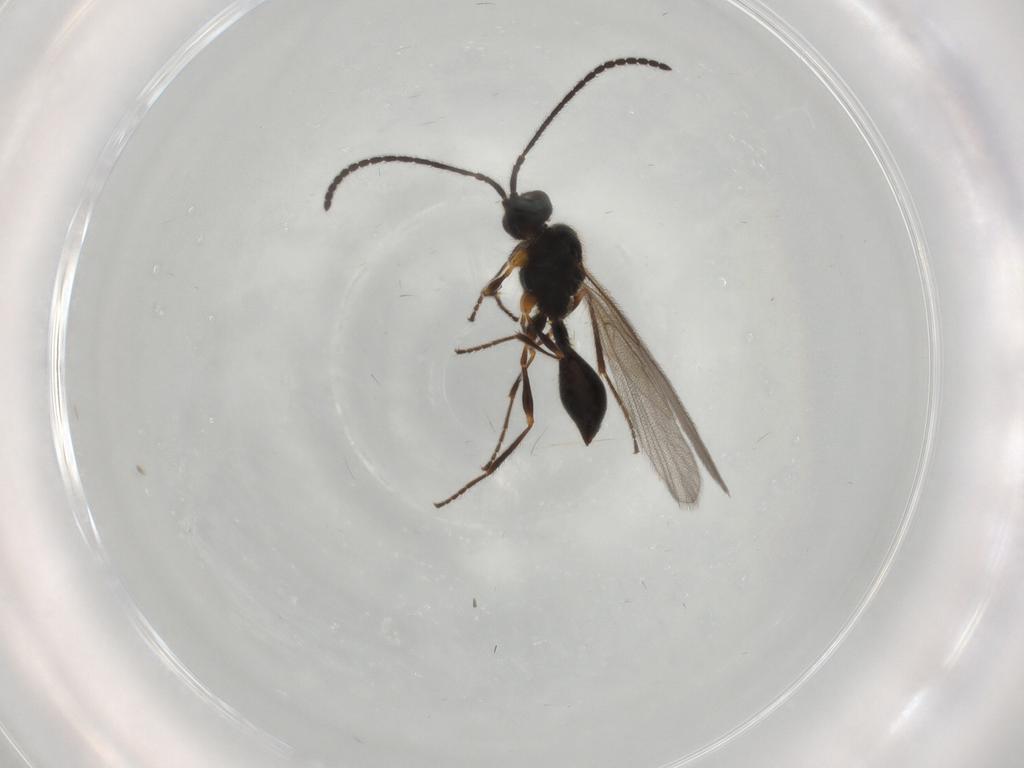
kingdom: Animalia
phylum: Arthropoda
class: Insecta
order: Hymenoptera
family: Diapriidae
